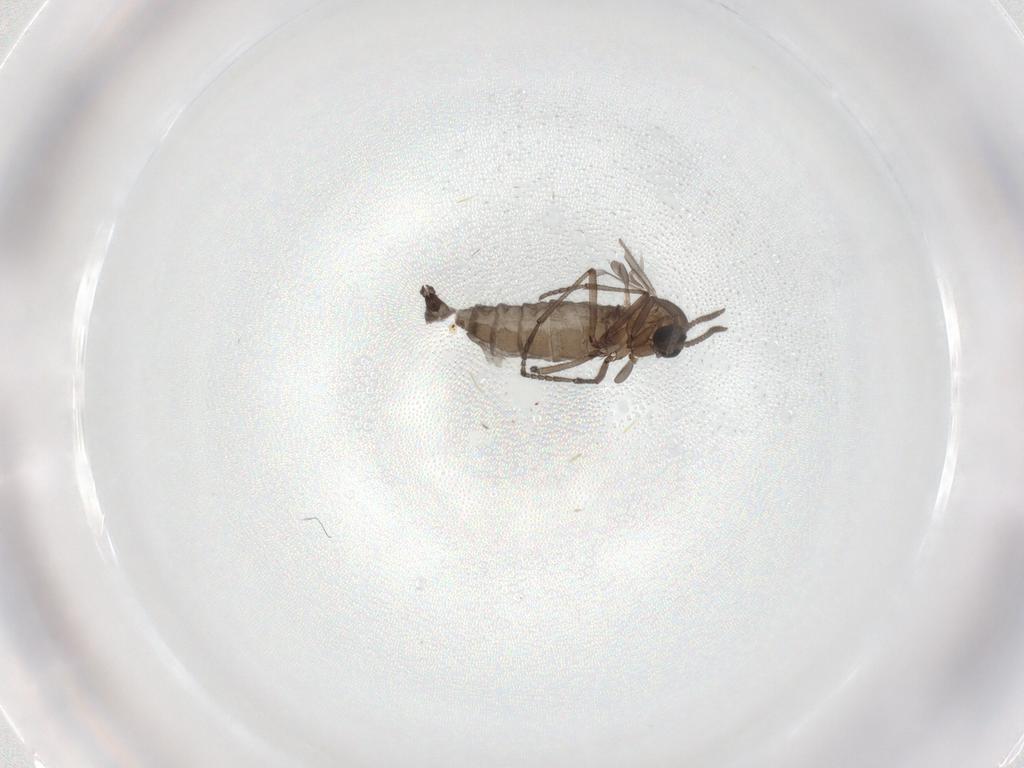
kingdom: Animalia
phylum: Arthropoda
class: Insecta
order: Diptera
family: Sciaridae
